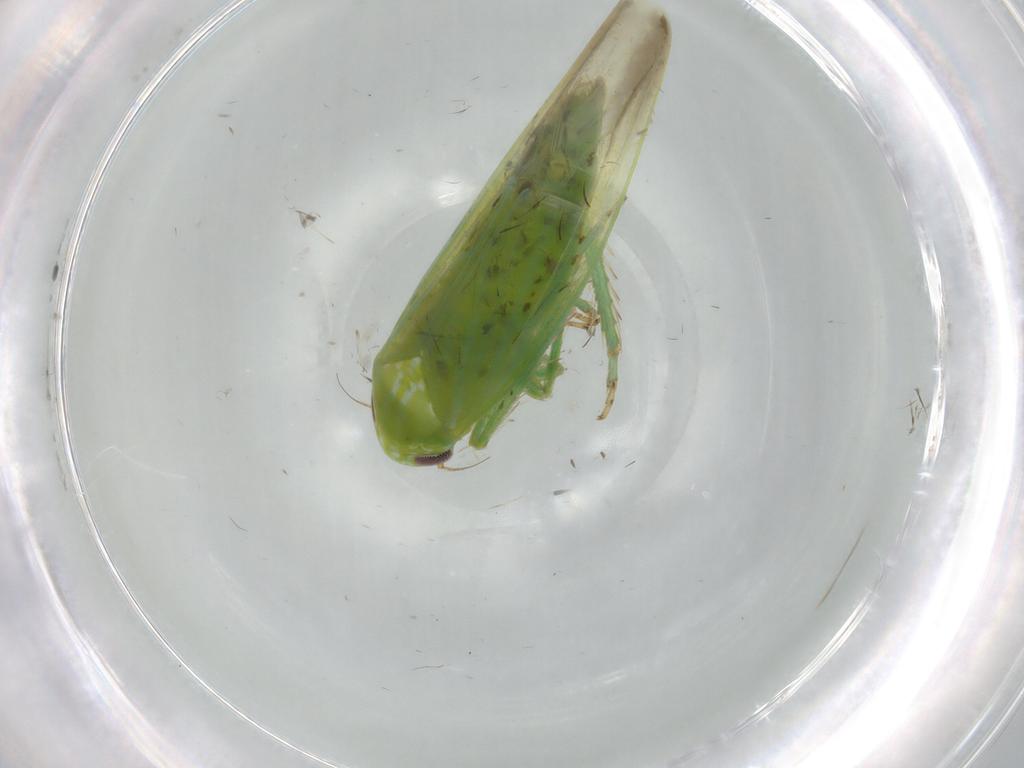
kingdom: Animalia
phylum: Arthropoda
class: Insecta
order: Hemiptera
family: Cicadellidae
